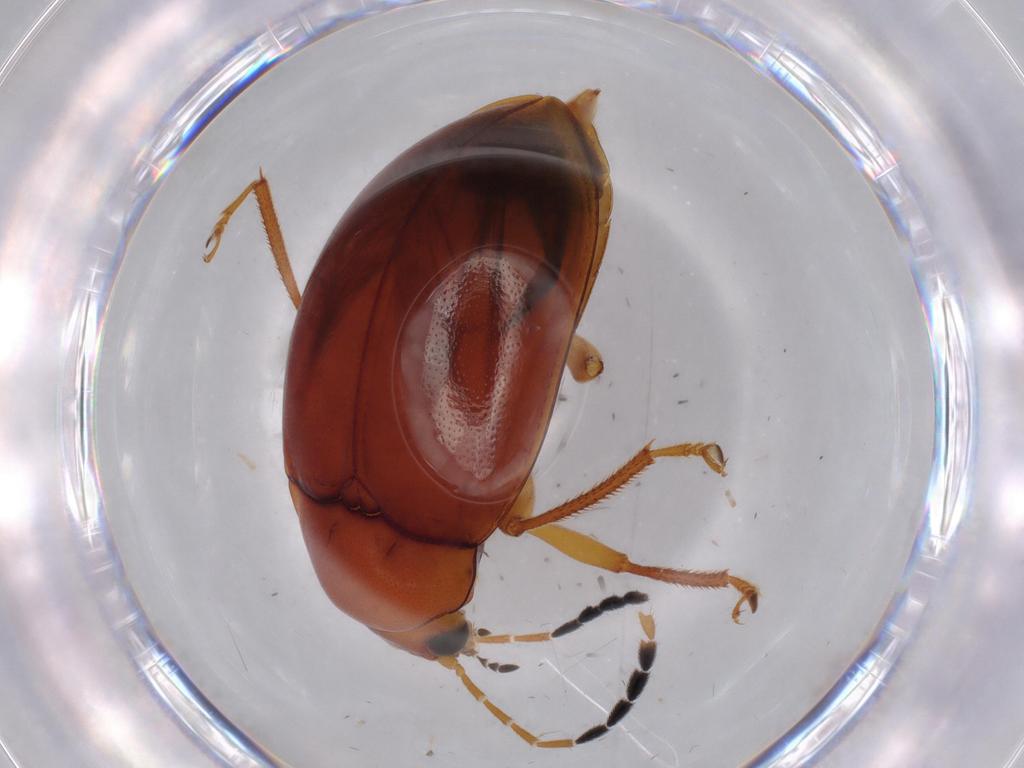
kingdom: Animalia
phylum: Arthropoda
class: Insecta
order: Coleoptera
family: Ptilodactylidae
